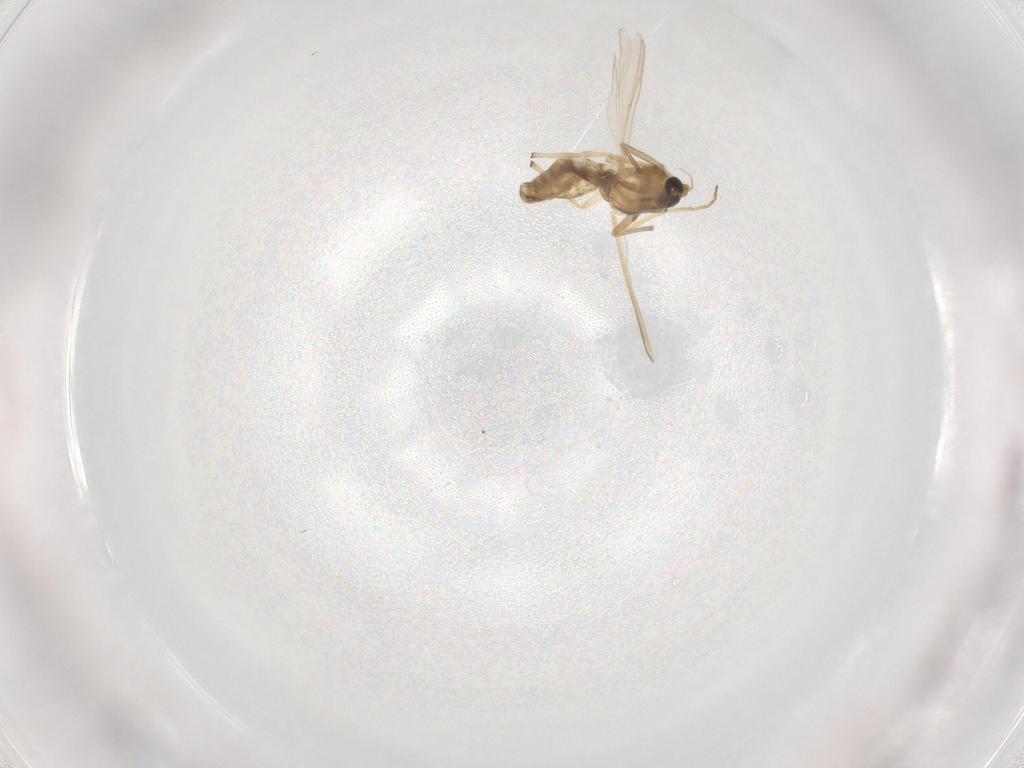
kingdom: Animalia
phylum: Arthropoda
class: Insecta
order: Diptera
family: Chironomidae
